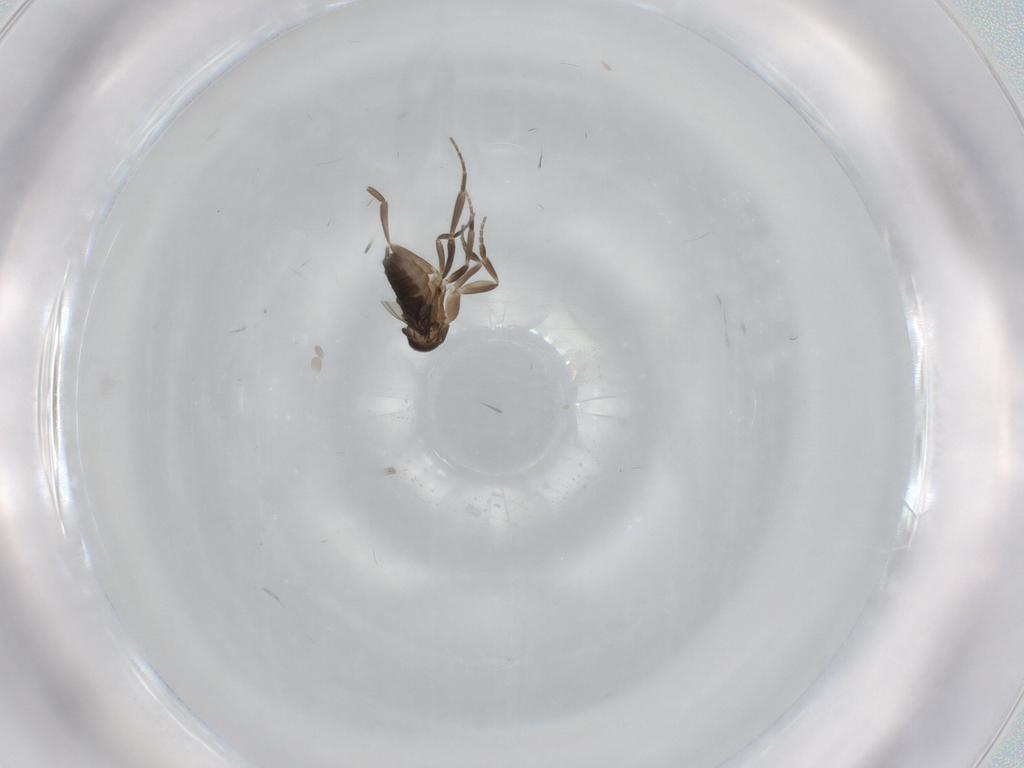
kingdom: Animalia
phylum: Arthropoda
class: Insecta
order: Diptera
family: Phoridae
